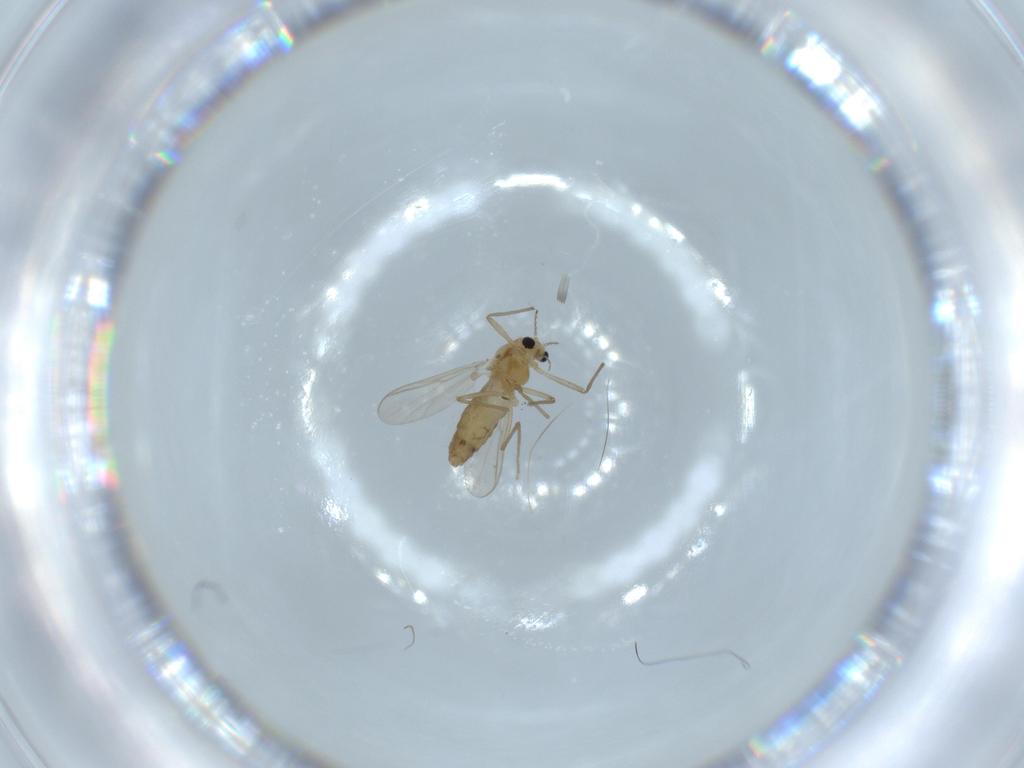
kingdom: Animalia
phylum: Arthropoda
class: Insecta
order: Diptera
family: Chironomidae
